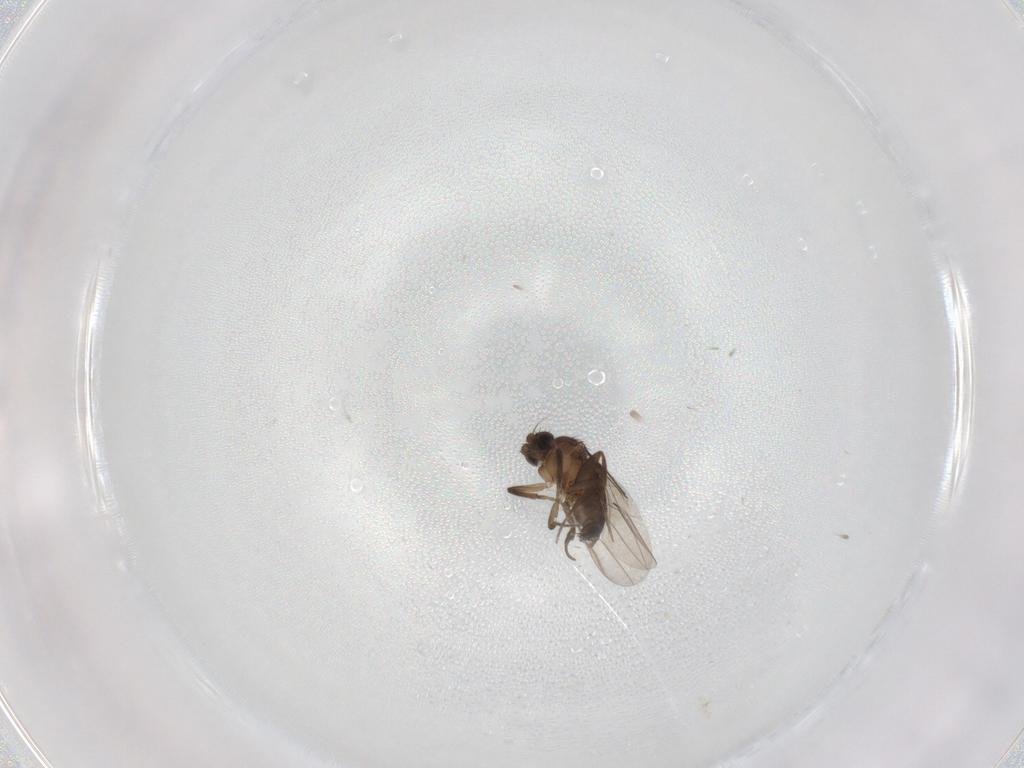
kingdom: Animalia
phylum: Arthropoda
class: Insecta
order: Diptera
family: Phoridae
